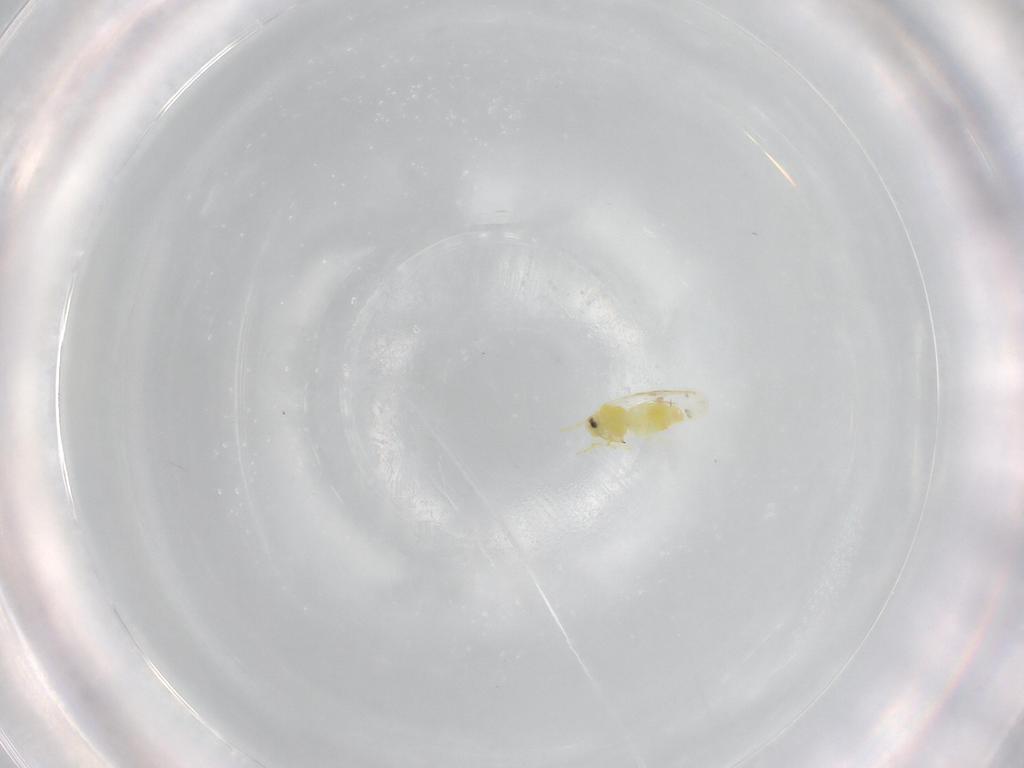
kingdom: Animalia
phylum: Arthropoda
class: Insecta
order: Hemiptera
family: Aleyrodidae
